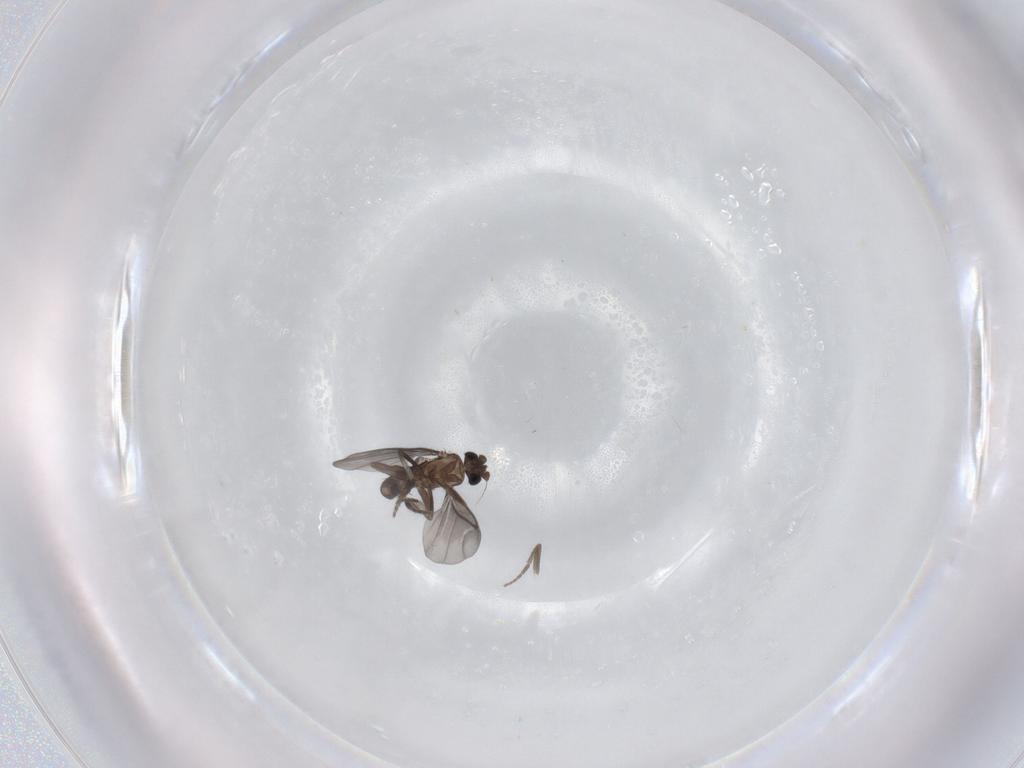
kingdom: Animalia
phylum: Arthropoda
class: Insecta
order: Diptera
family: Phoridae
